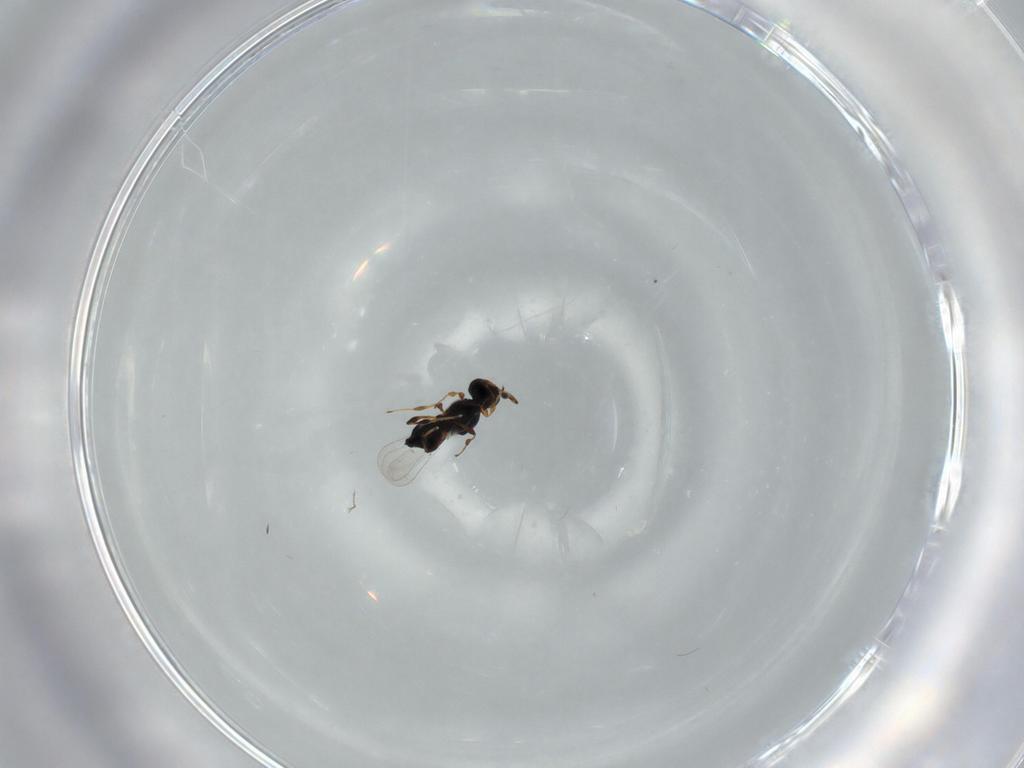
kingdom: Animalia
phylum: Arthropoda
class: Insecta
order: Hymenoptera
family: Platygastridae
